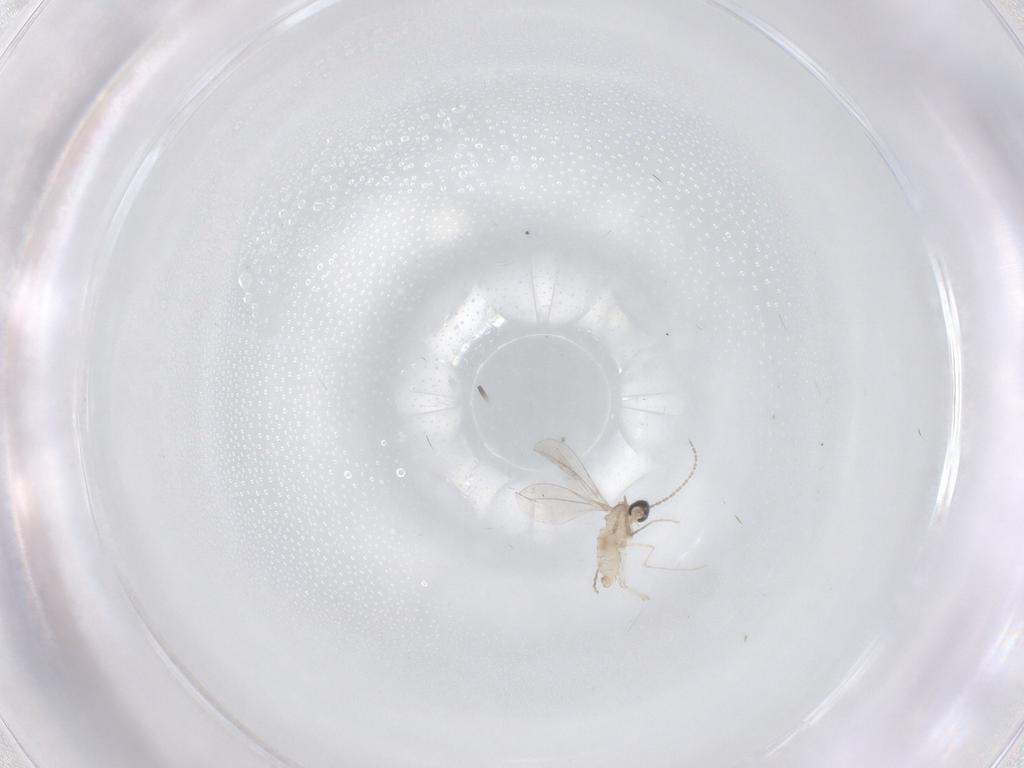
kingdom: Animalia
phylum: Arthropoda
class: Insecta
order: Diptera
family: Cecidomyiidae
